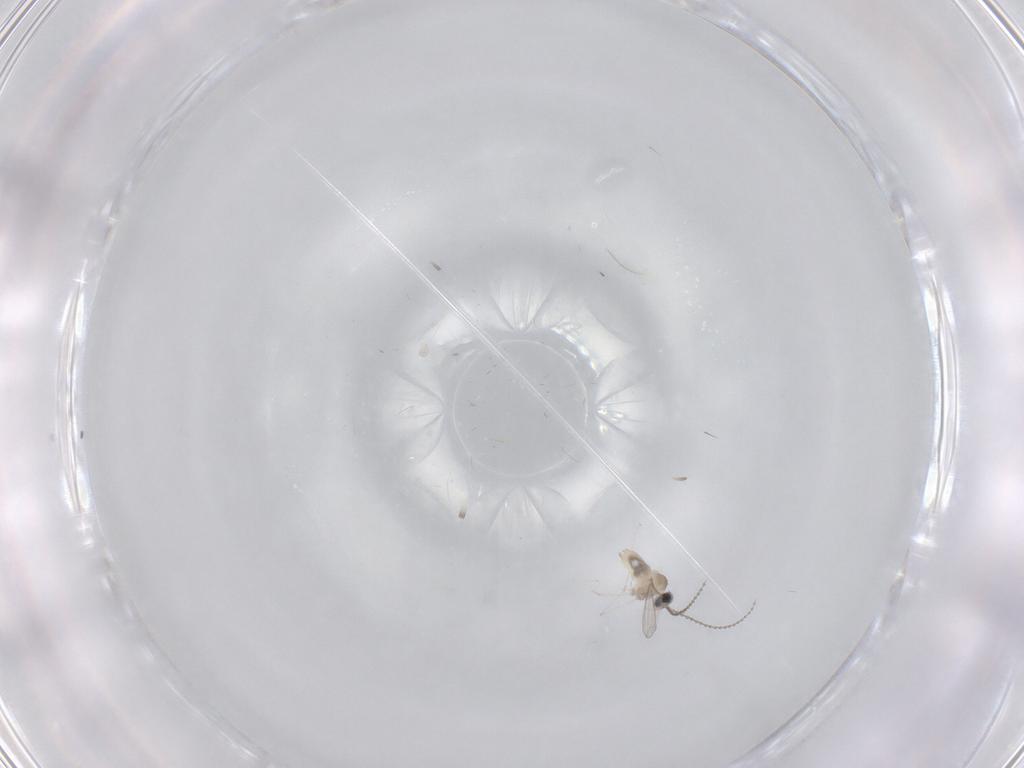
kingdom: Animalia
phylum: Arthropoda
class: Insecta
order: Diptera
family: Cecidomyiidae
